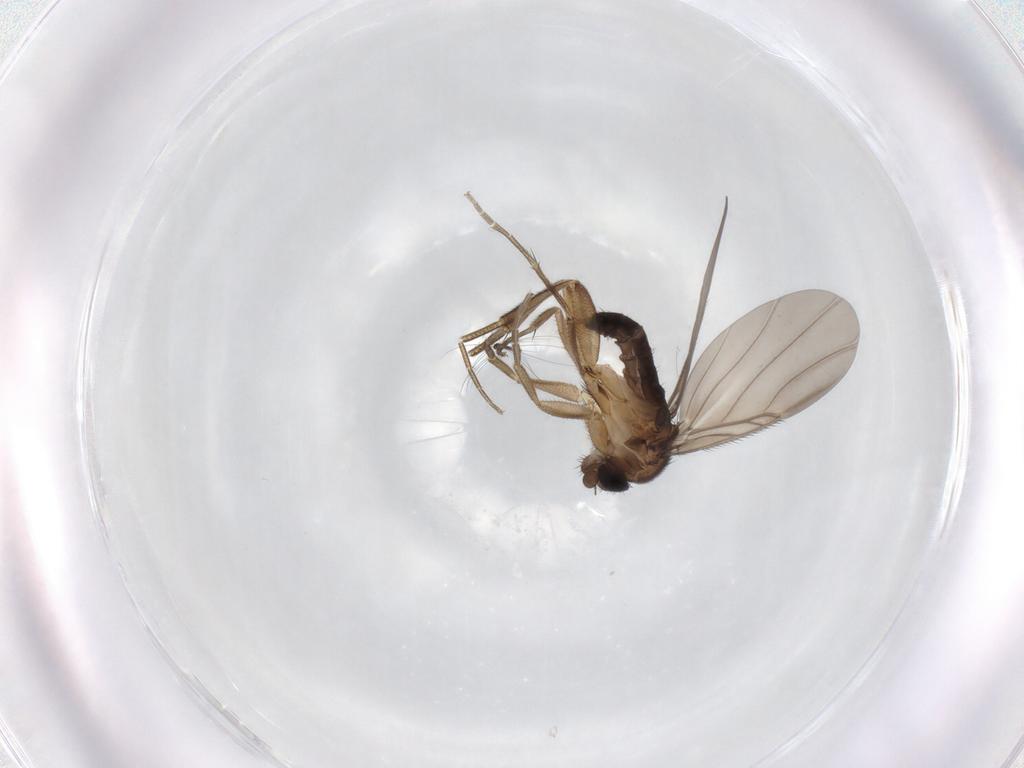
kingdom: Animalia
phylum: Arthropoda
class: Insecta
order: Diptera
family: Phoridae
